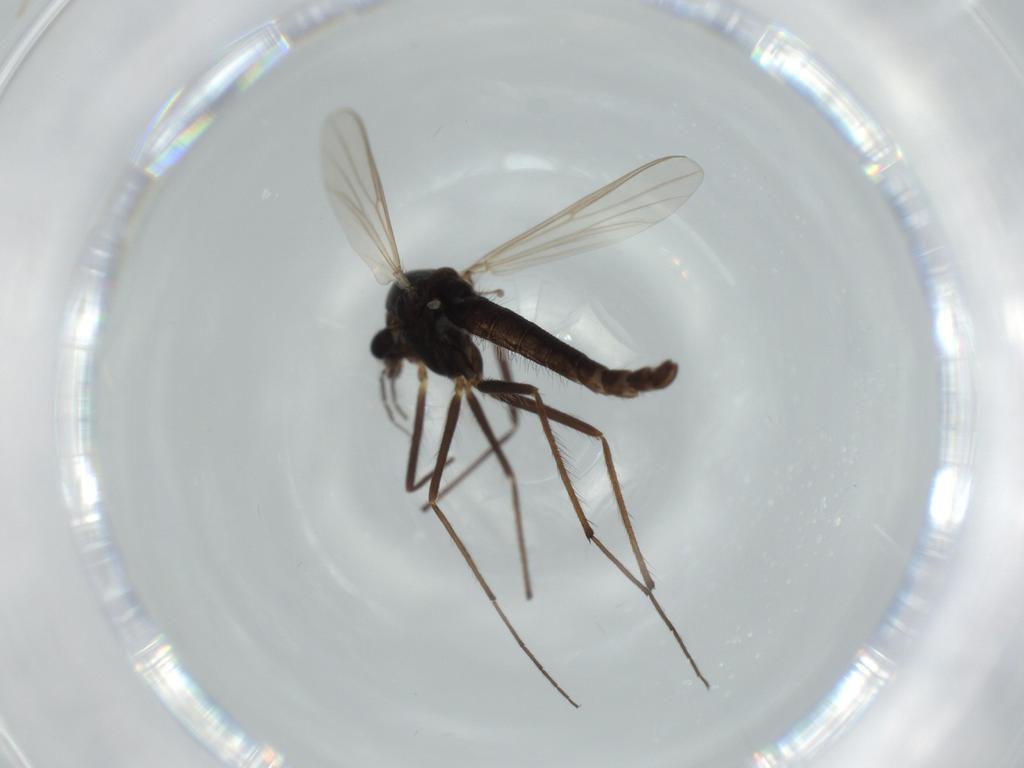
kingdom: Animalia
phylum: Arthropoda
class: Insecta
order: Diptera
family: Chironomidae
